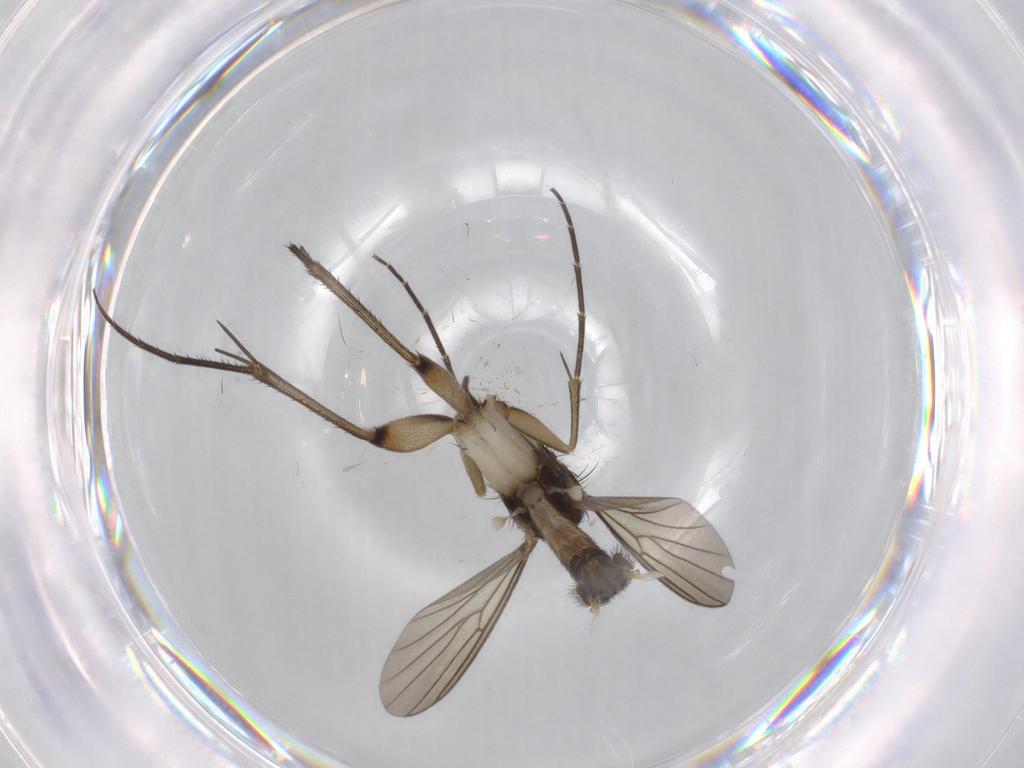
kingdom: Animalia
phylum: Arthropoda
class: Insecta
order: Diptera
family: Mycetophilidae
